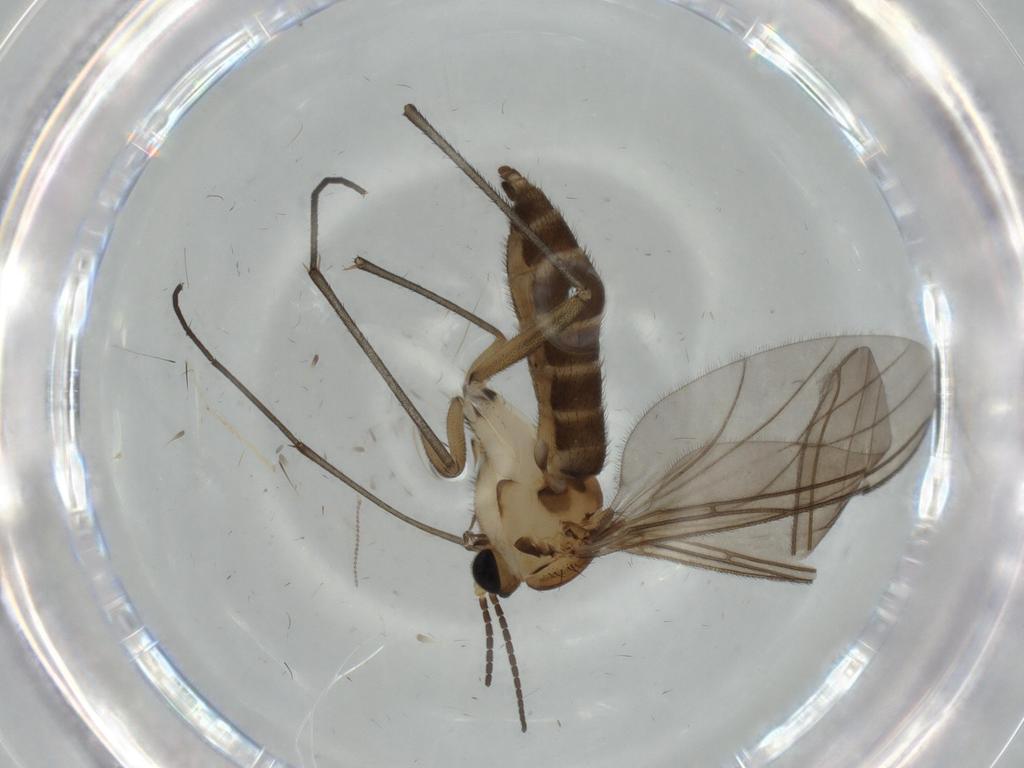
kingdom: Animalia
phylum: Arthropoda
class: Insecta
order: Diptera
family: Sciaridae
